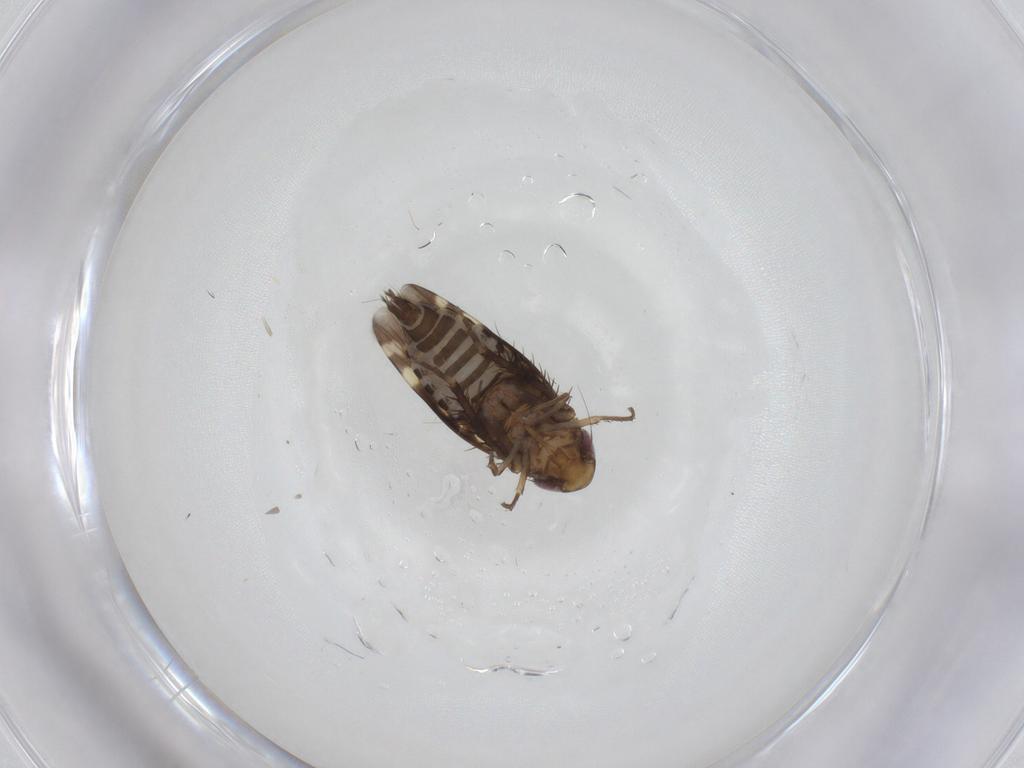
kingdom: Animalia
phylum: Arthropoda
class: Insecta
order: Hemiptera
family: Cicadellidae
